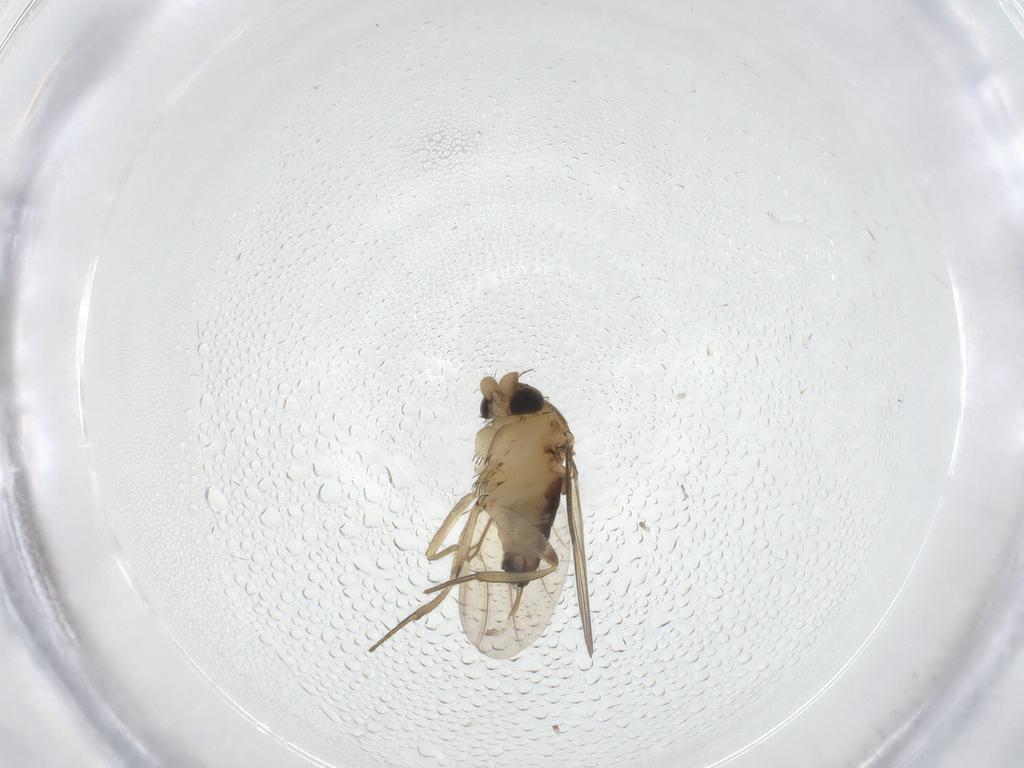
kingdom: Animalia
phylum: Arthropoda
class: Insecta
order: Diptera
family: Phoridae
